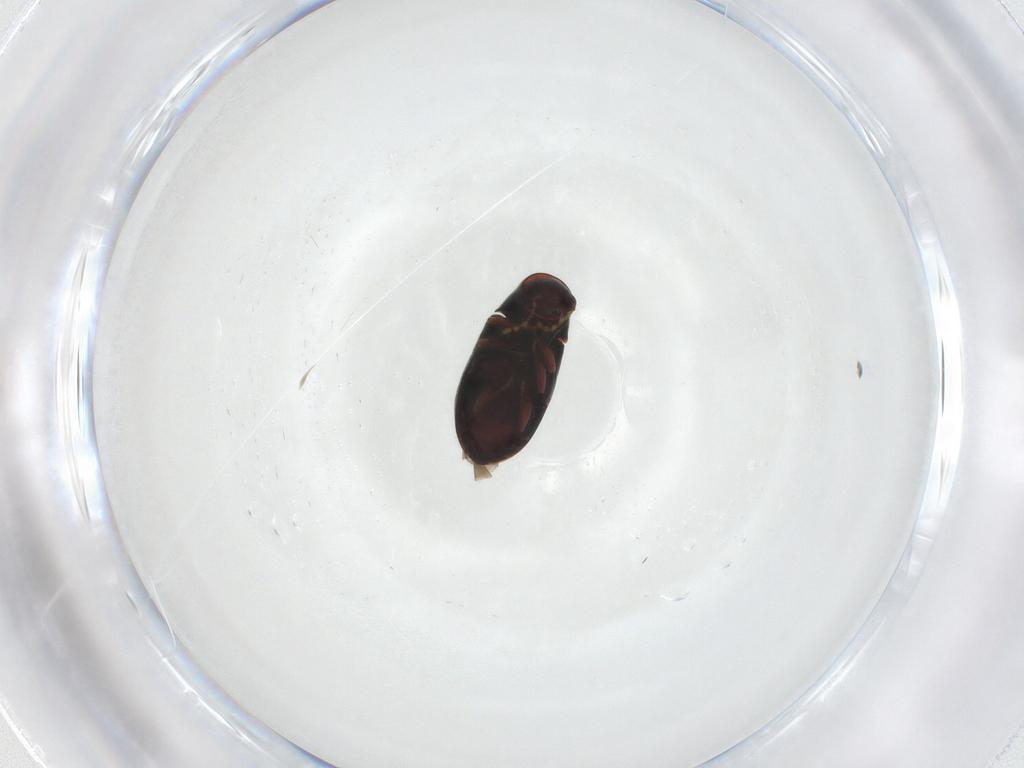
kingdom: Animalia
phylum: Arthropoda
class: Insecta
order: Coleoptera
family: Ptinidae
